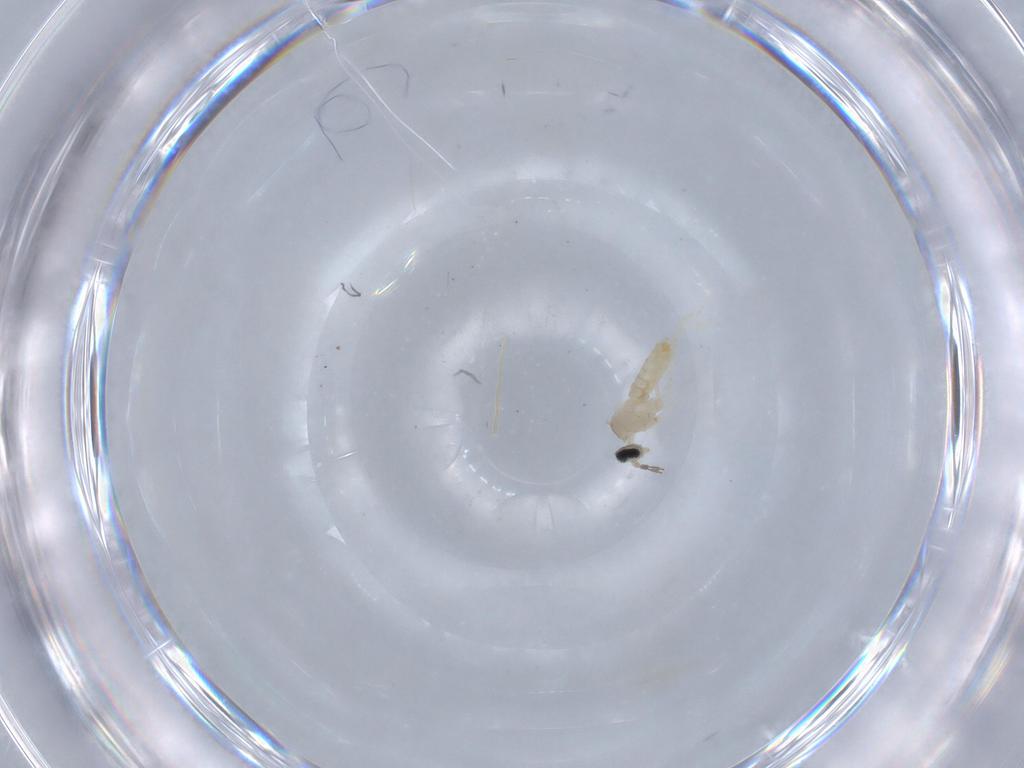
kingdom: Animalia
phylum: Arthropoda
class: Insecta
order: Diptera
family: Cecidomyiidae
